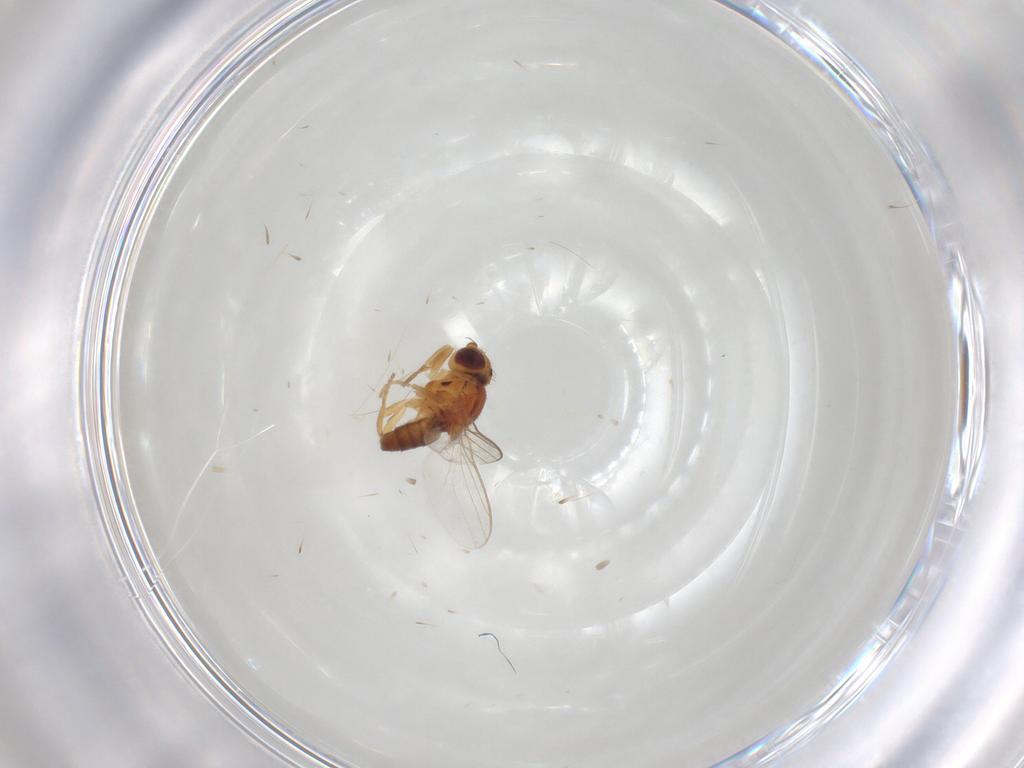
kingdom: Animalia
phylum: Arthropoda
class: Insecta
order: Diptera
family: Chloropidae
